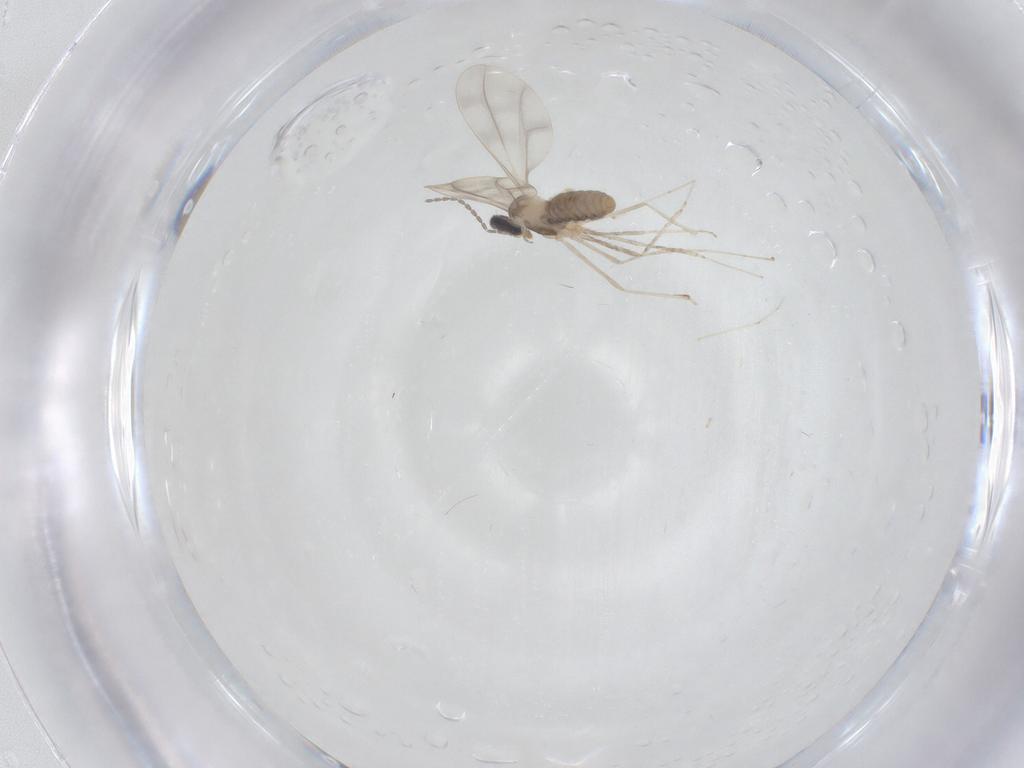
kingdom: Animalia
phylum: Arthropoda
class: Insecta
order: Diptera
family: Cecidomyiidae
